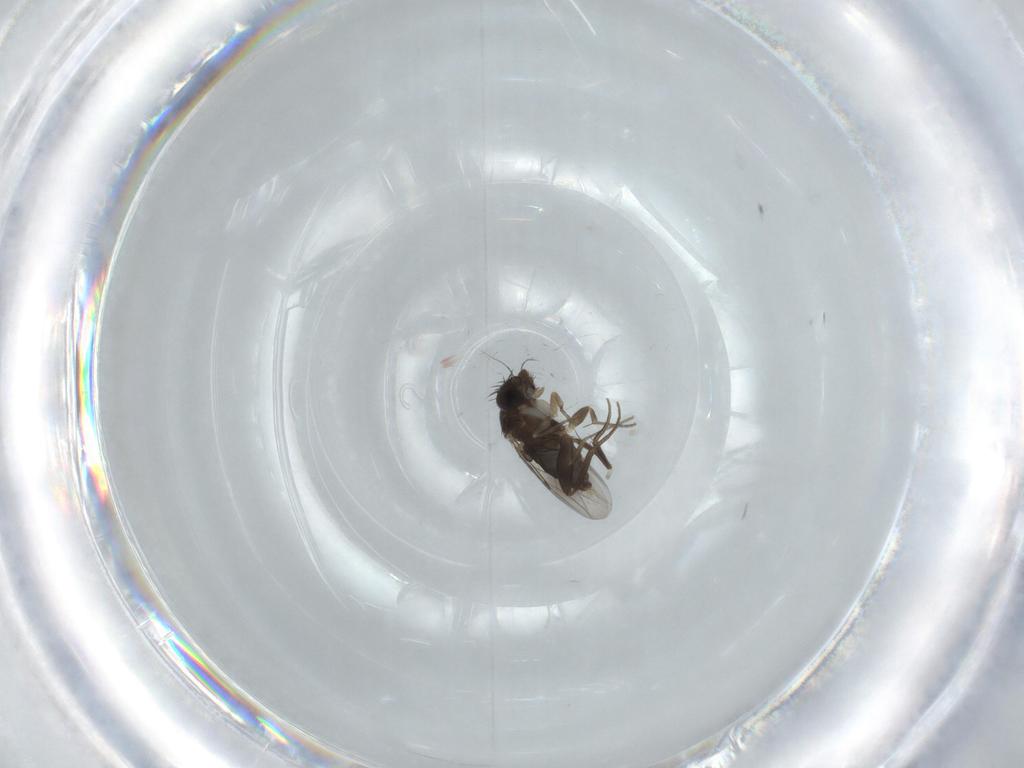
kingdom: Animalia
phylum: Arthropoda
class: Insecta
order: Diptera
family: Phoridae
